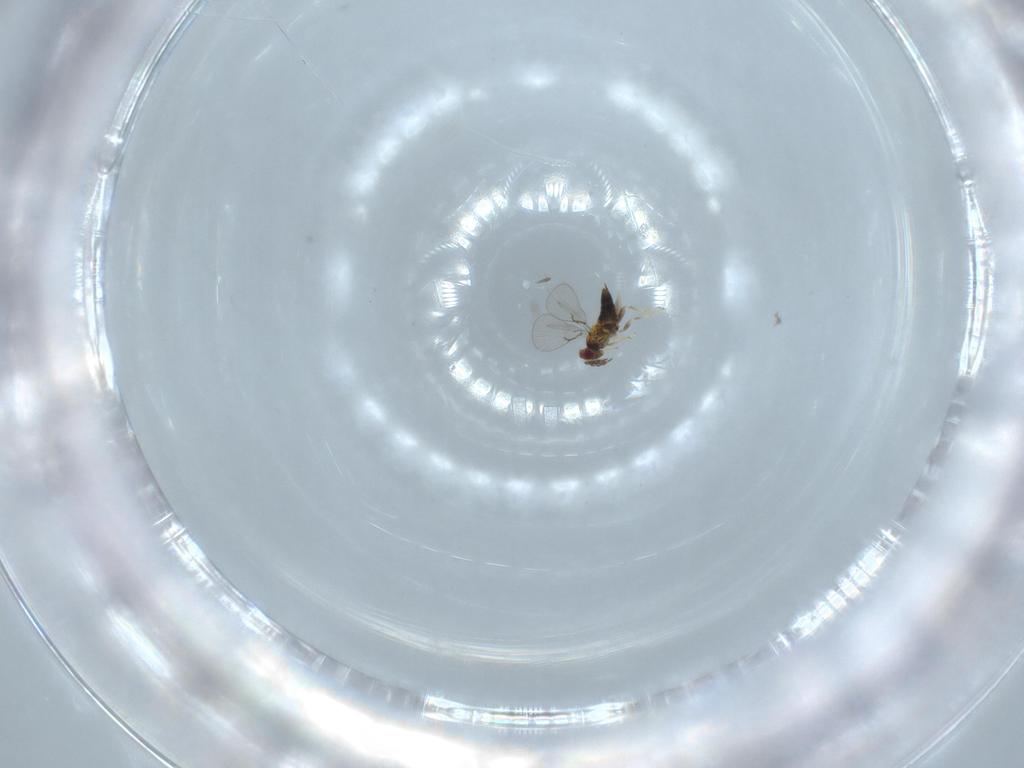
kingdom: Animalia
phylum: Arthropoda
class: Insecta
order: Hymenoptera
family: Trichogrammatidae
